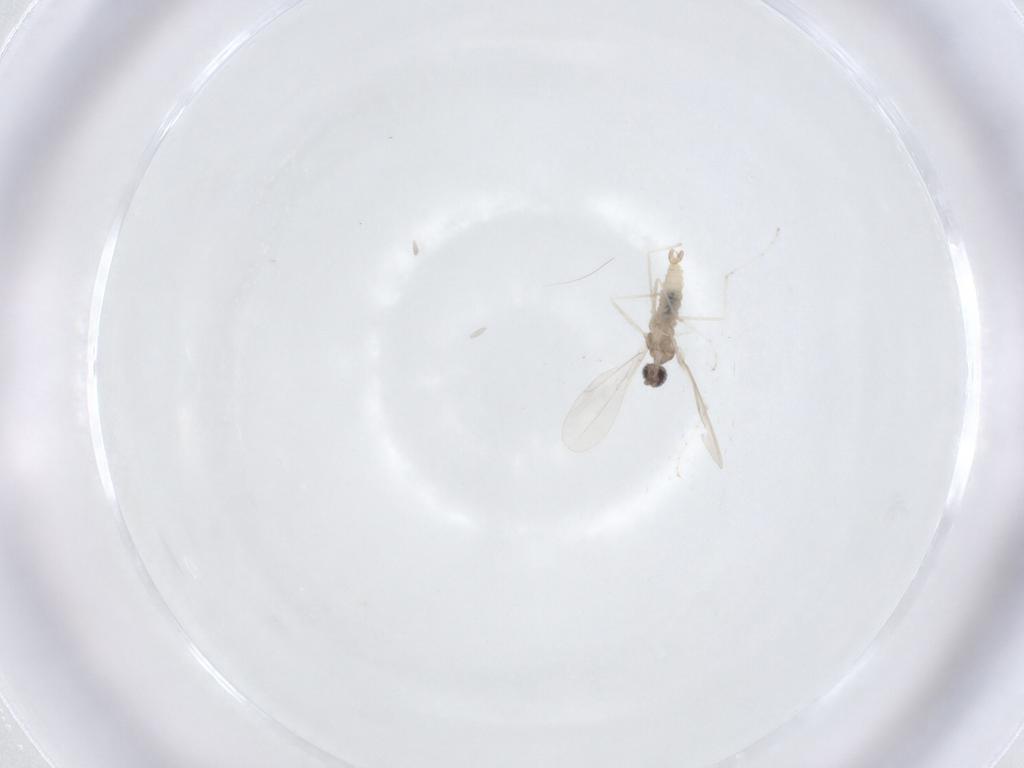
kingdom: Animalia
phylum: Arthropoda
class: Insecta
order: Diptera
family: Cecidomyiidae
